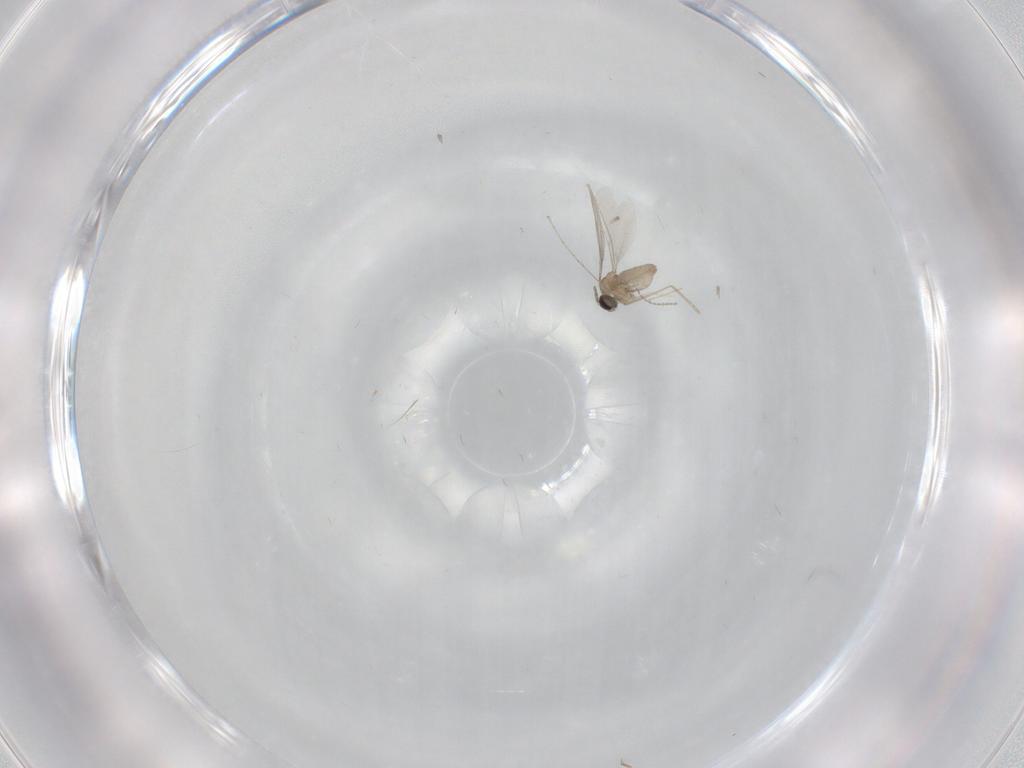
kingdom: Animalia
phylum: Arthropoda
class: Insecta
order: Diptera
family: Cecidomyiidae
